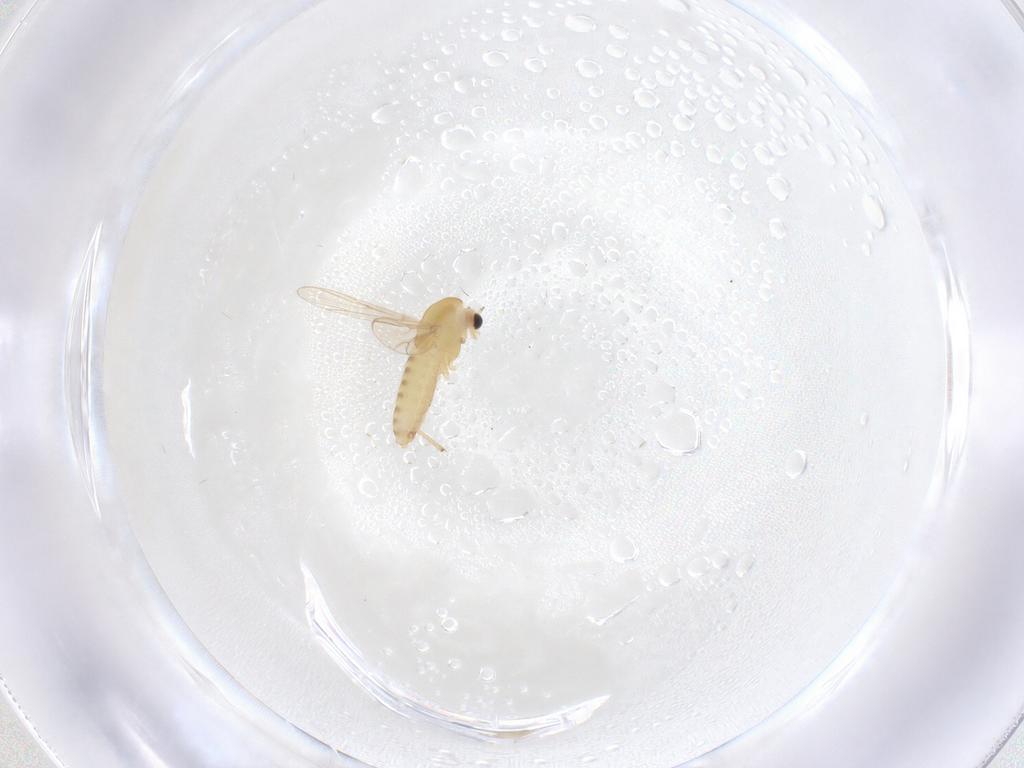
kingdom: Animalia
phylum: Arthropoda
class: Insecta
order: Diptera
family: Chironomidae
